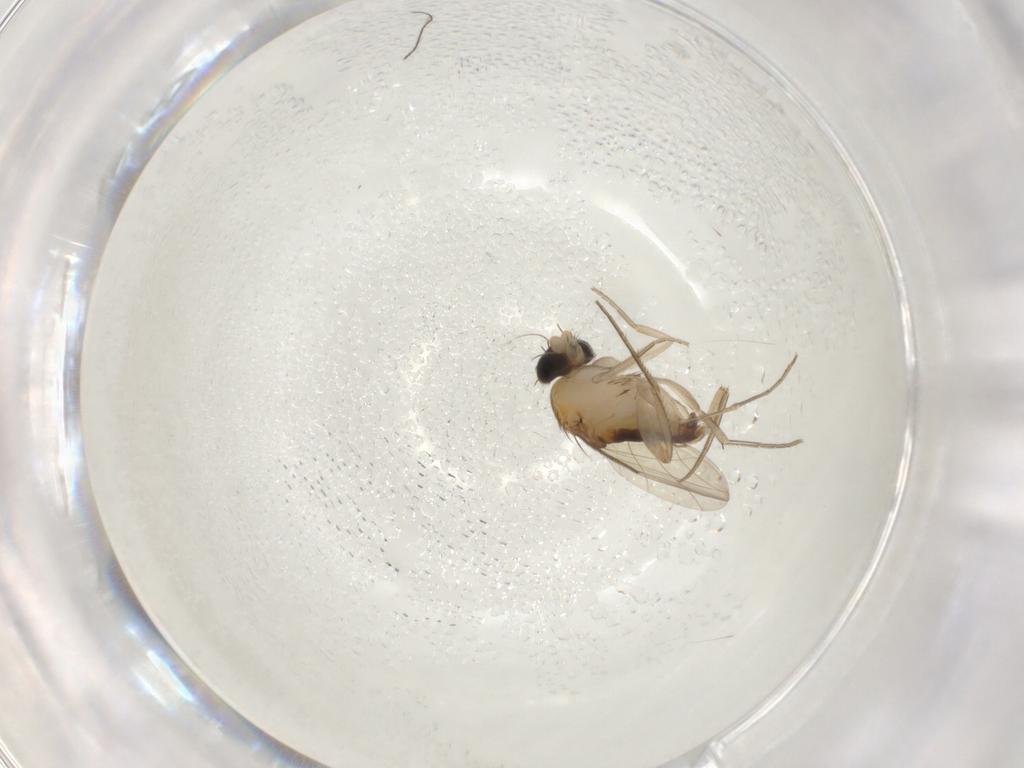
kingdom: Animalia
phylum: Arthropoda
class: Insecta
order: Diptera
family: Phoridae
